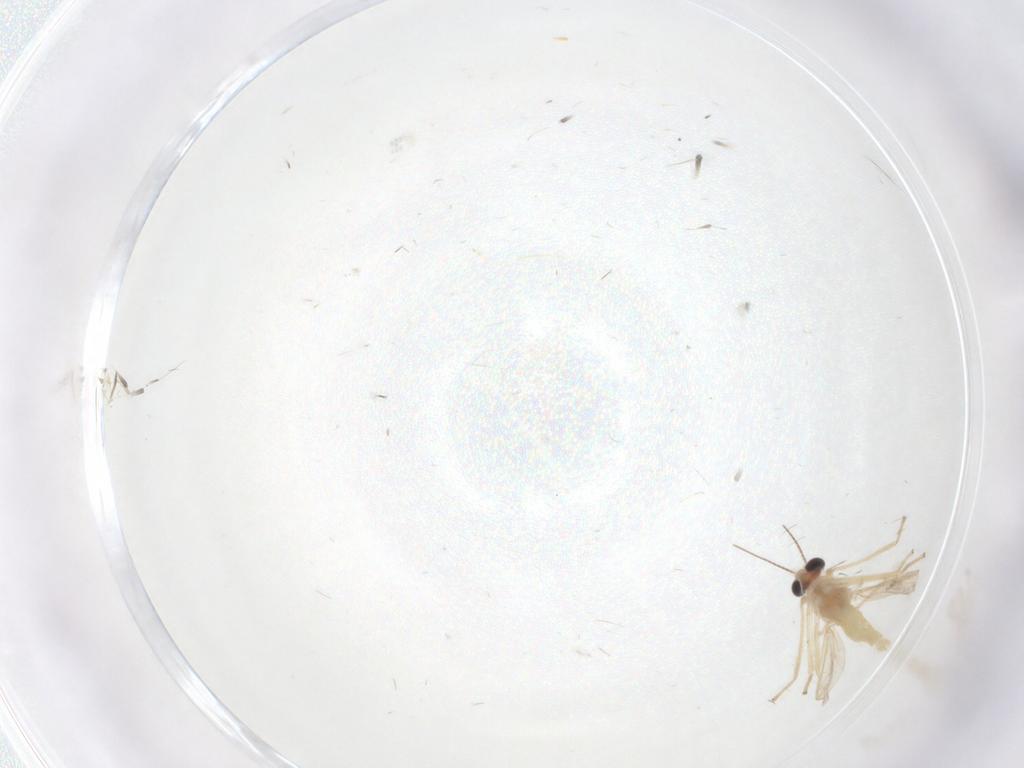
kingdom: Animalia
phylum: Arthropoda
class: Insecta
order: Diptera
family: Chironomidae
